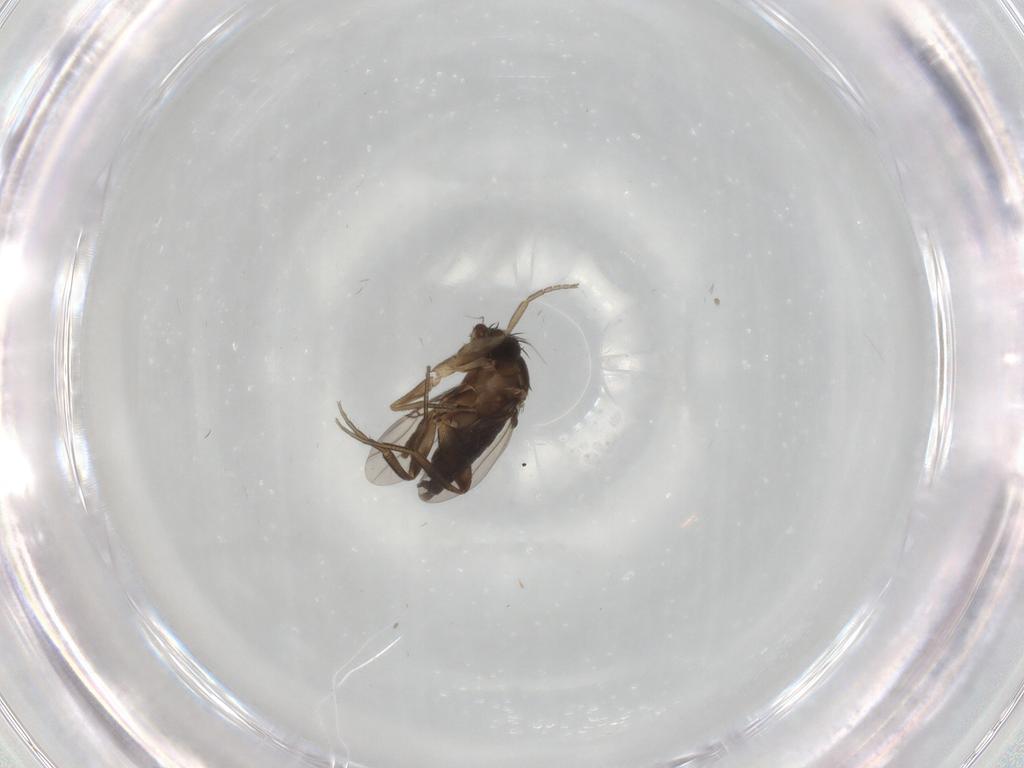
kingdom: Animalia
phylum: Arthropoda
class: Insecta
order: Diptera
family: Phoridae
